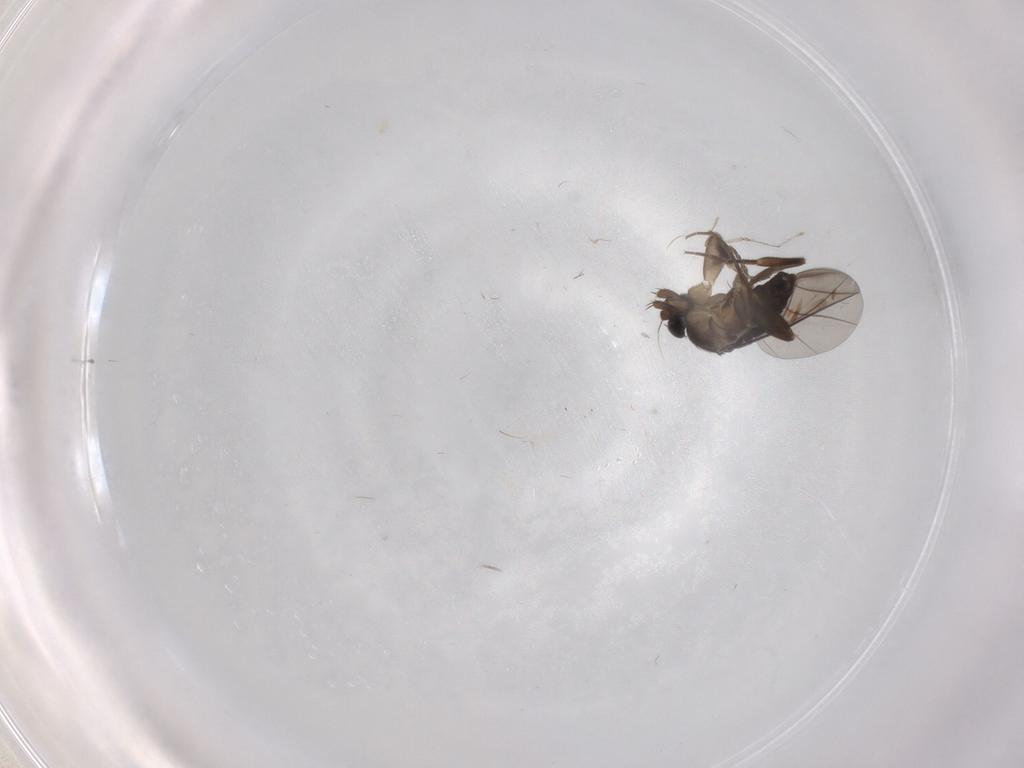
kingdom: Animalia
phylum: Arthropoda
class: Insecta
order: Diptera
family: Phoridae
